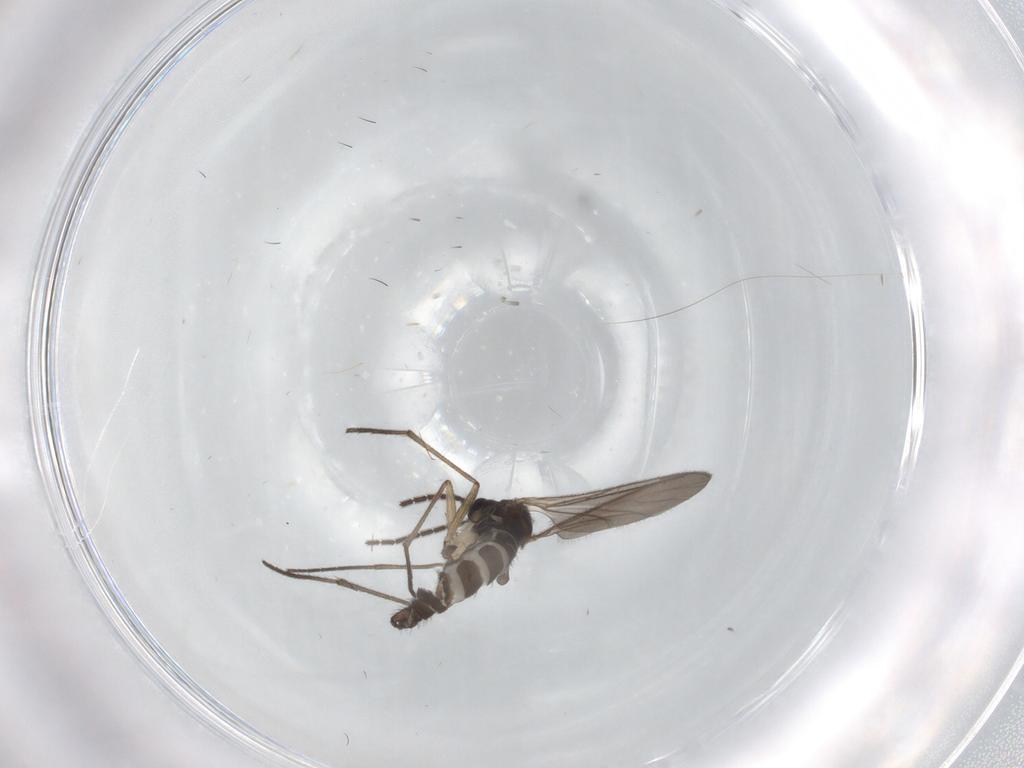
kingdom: Animalia
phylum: Arthropoda
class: Insecta
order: Diptera
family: Sciaridae
